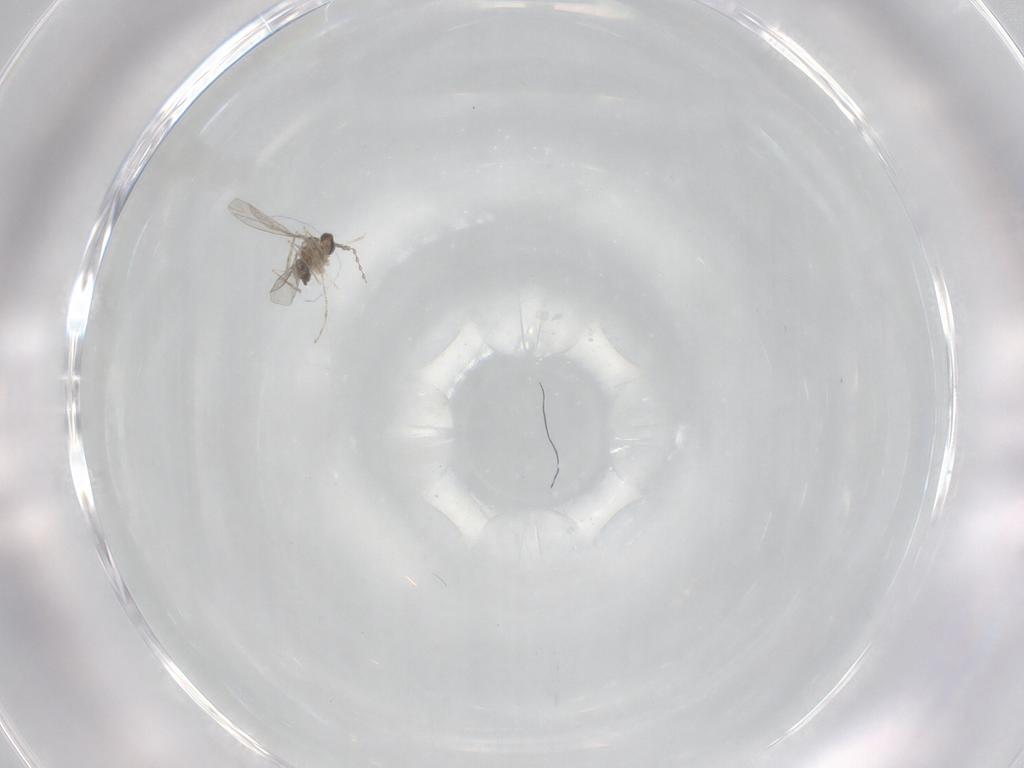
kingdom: Animalia
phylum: Arthropoda
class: Insecta
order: Diptera
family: Cecidomyiidae
